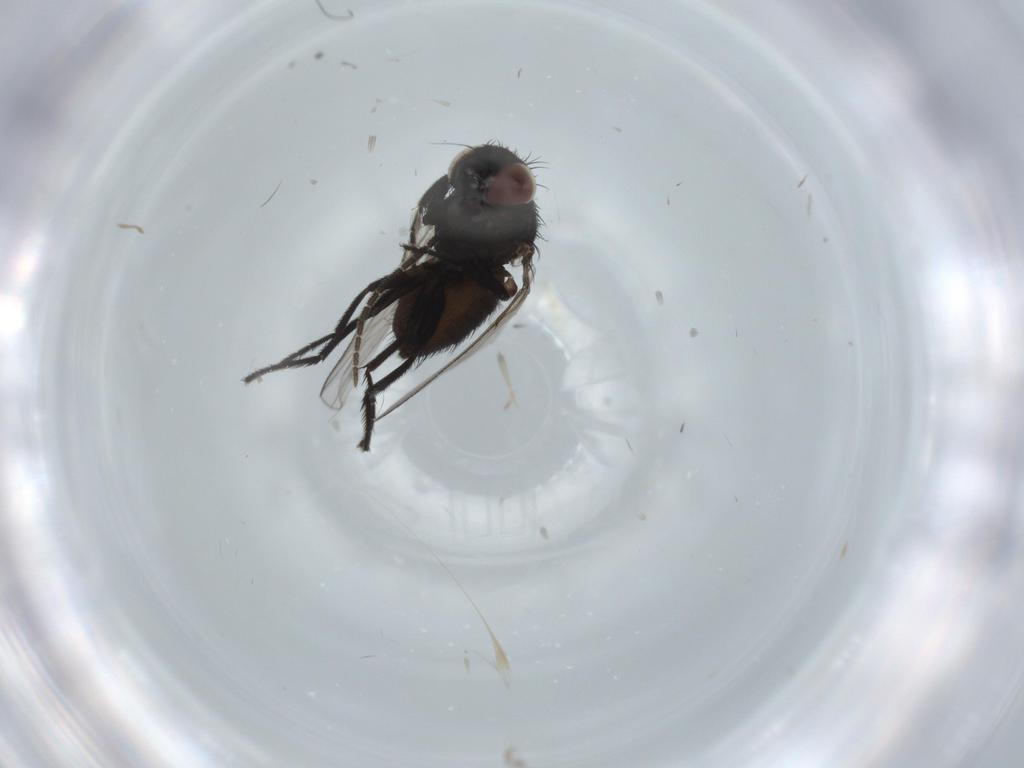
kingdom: Animalia
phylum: Arthropoda
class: Insecta
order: Diptera
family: Milichiidae
